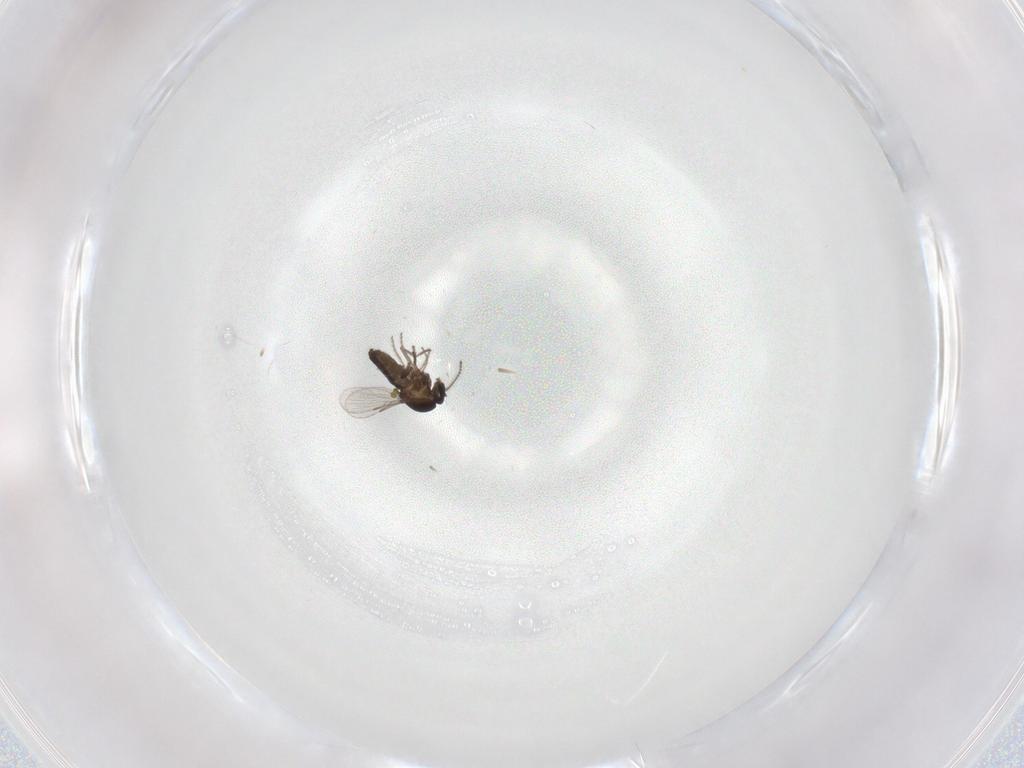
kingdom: Animalia
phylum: Arthropoda
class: Insecta
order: Diptera
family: Ceratopogonidae
